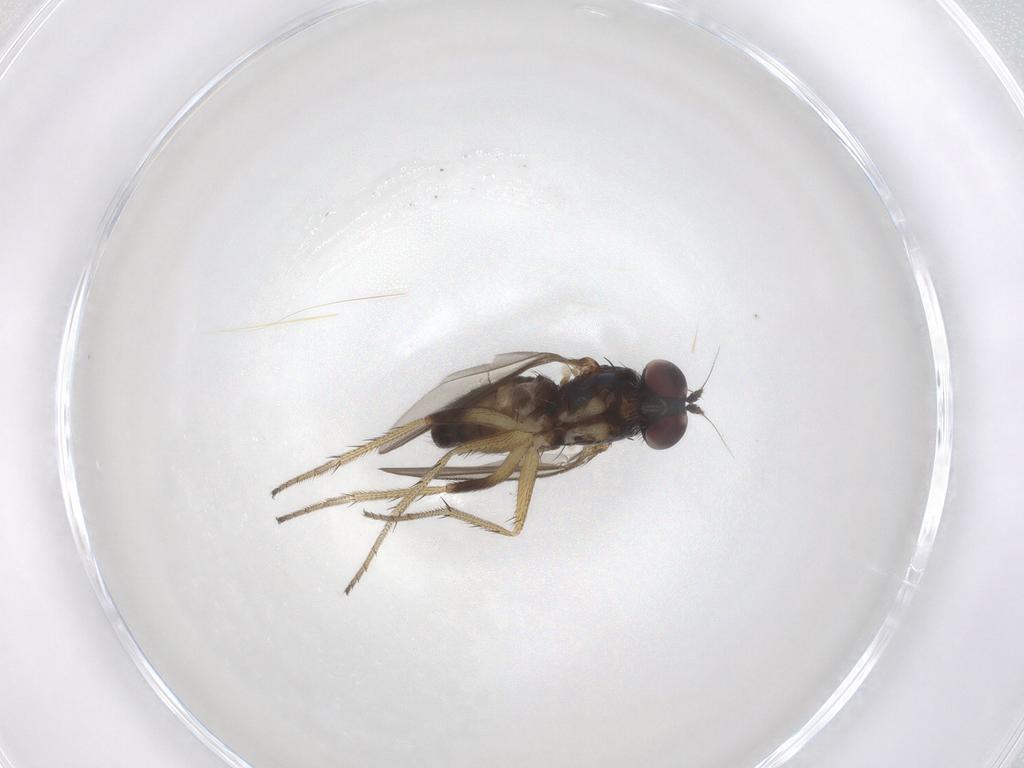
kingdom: Animalia
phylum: Arthropoda
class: Insecta
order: Diptera
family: Dolichopodidae
